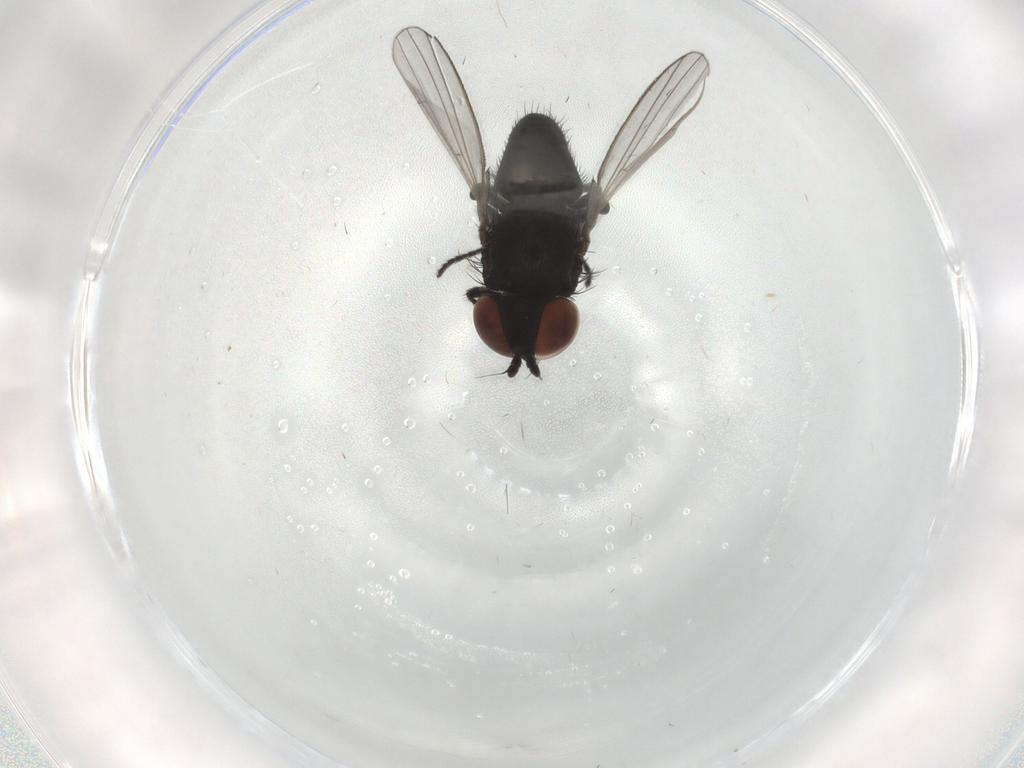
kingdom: Animalia
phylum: Arthropoda
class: Insecta
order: Diptera
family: Milichiidae
